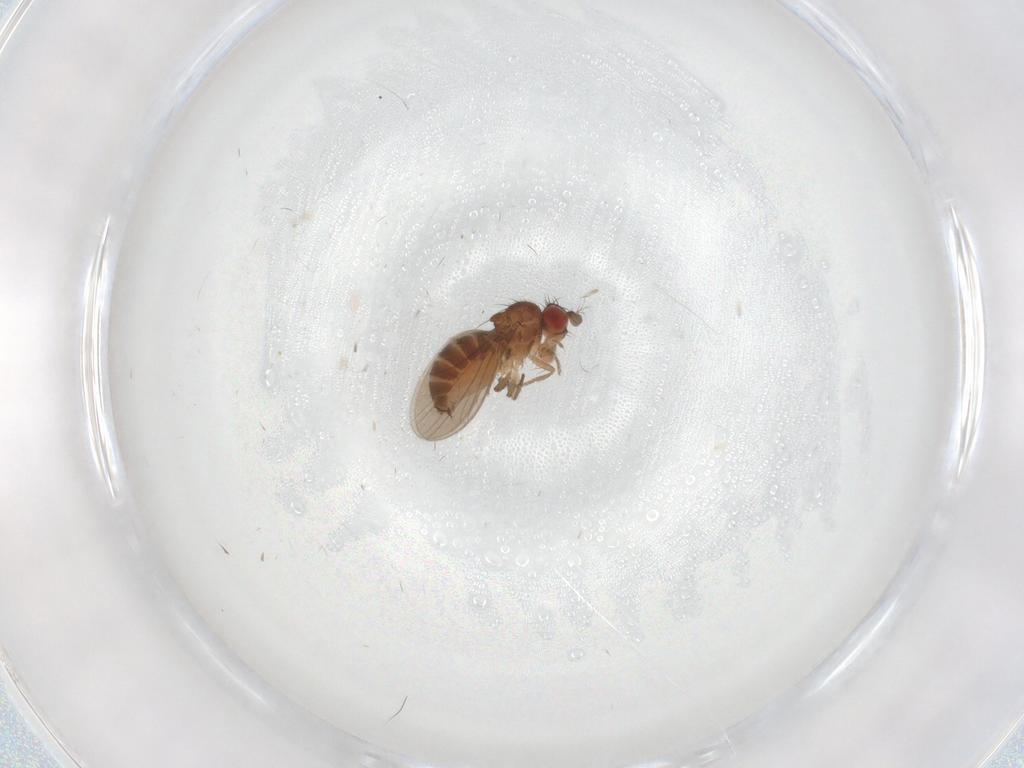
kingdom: Animalia
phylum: Arthropoda
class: Insecta
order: Diptera
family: Drosophilidae
